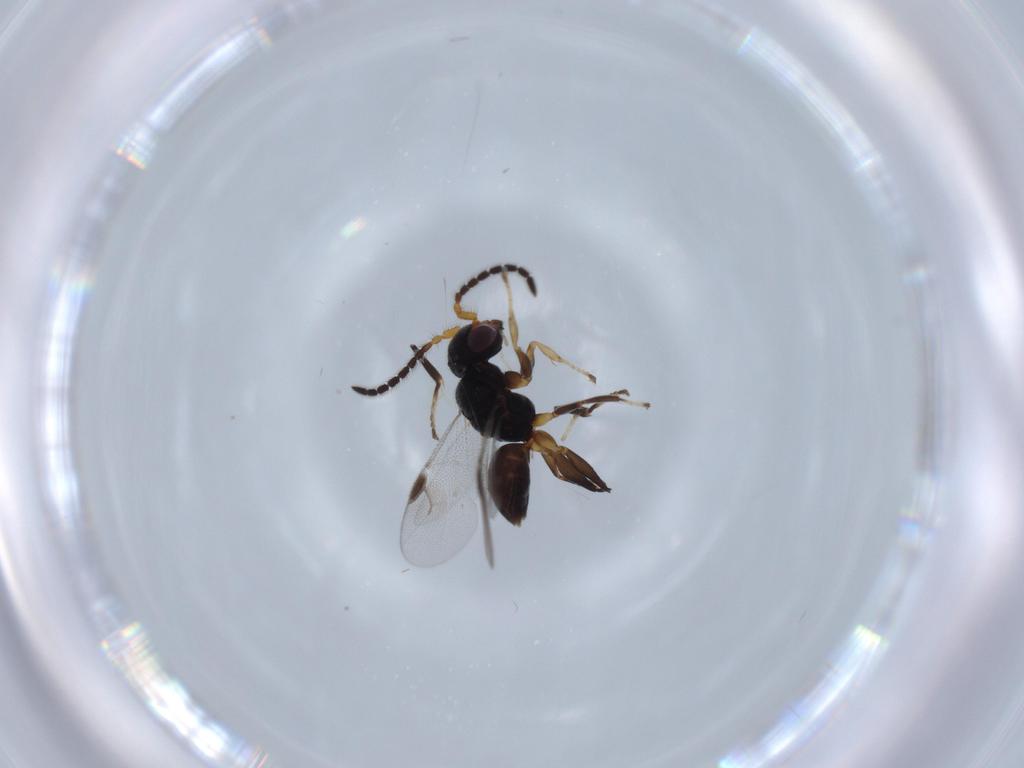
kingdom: Animalia
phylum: Arthropoda
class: Insecta
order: Hymenoptera
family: Dryinidae
